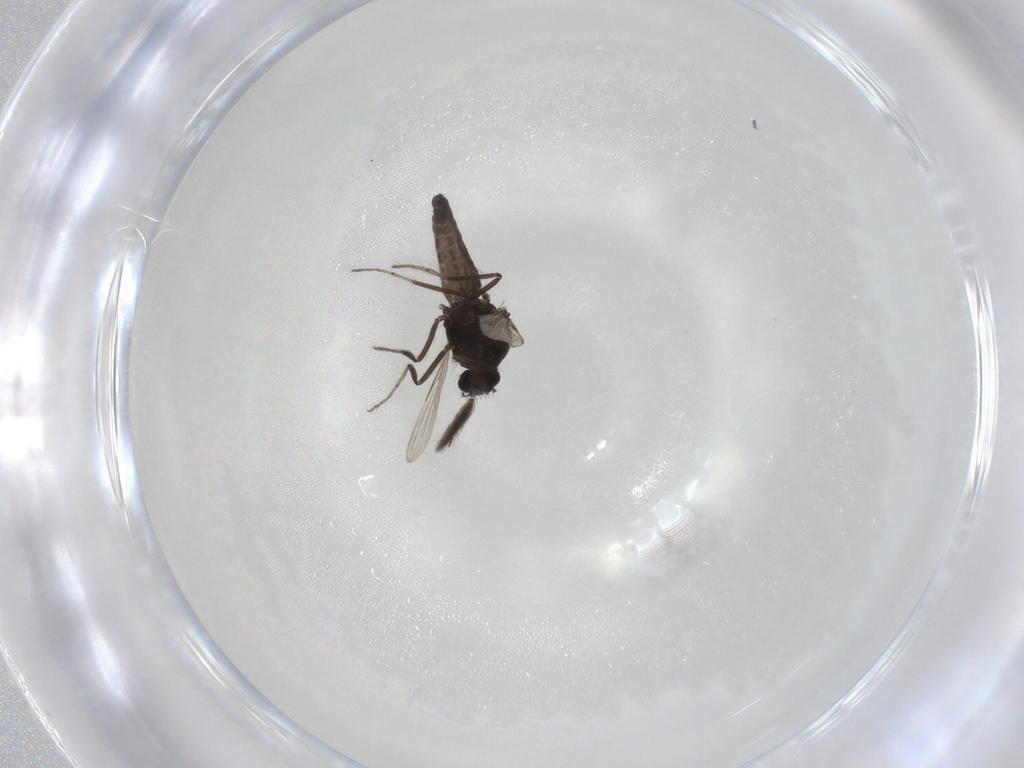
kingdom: Animalia
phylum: Arthropoda
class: Insecta
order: Diptera
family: Ceratopogonidae
